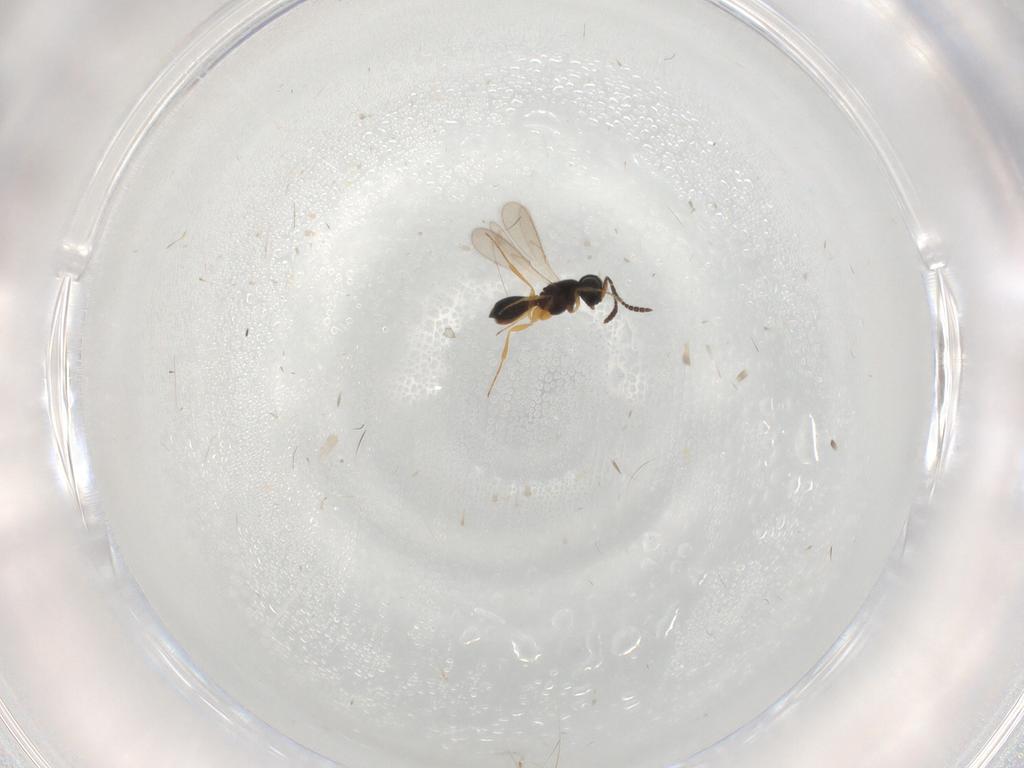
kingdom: Animalia
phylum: Arthropoda
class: Insecta
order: Hymenoptera
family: Scelionidae
